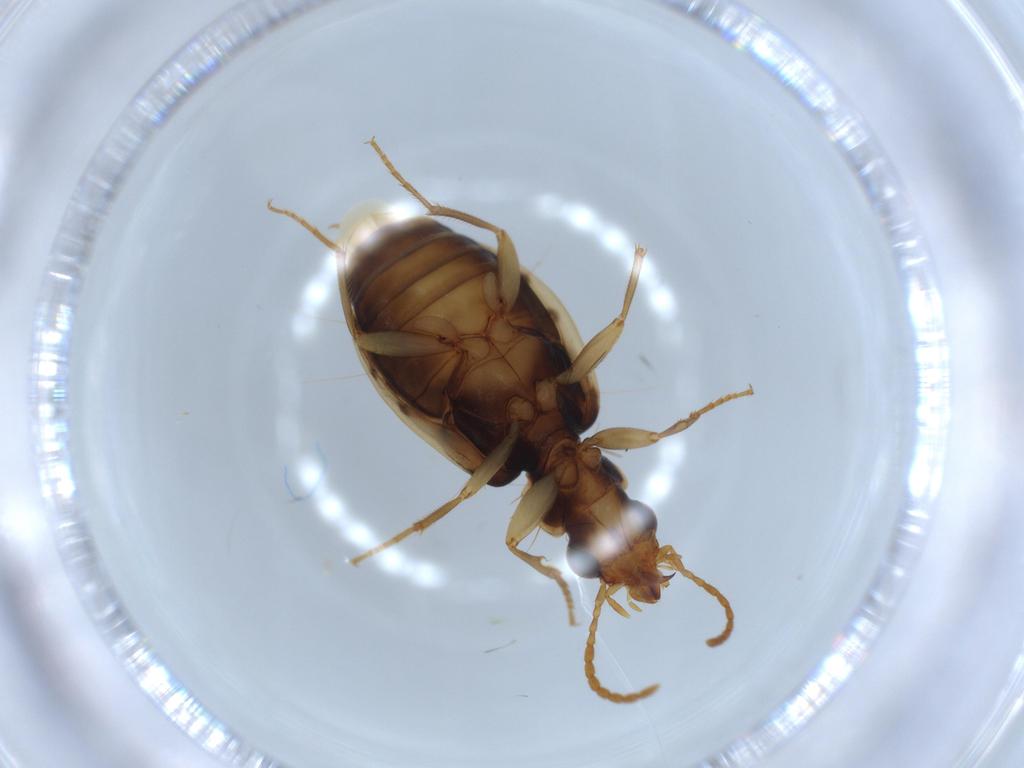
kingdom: Animalia
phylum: Arthropoda
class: Insecta
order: Coleoptera
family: Carabidae
